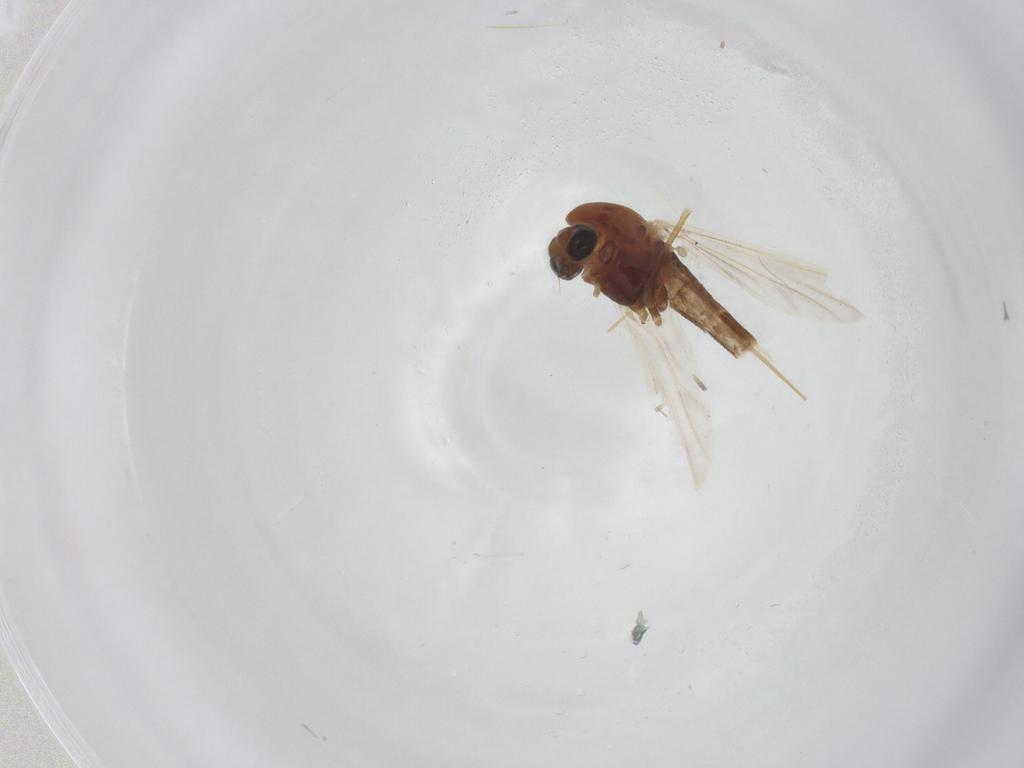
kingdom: Animalia
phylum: Arthropoda
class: Insecta
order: Diptera
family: Chironomidae
